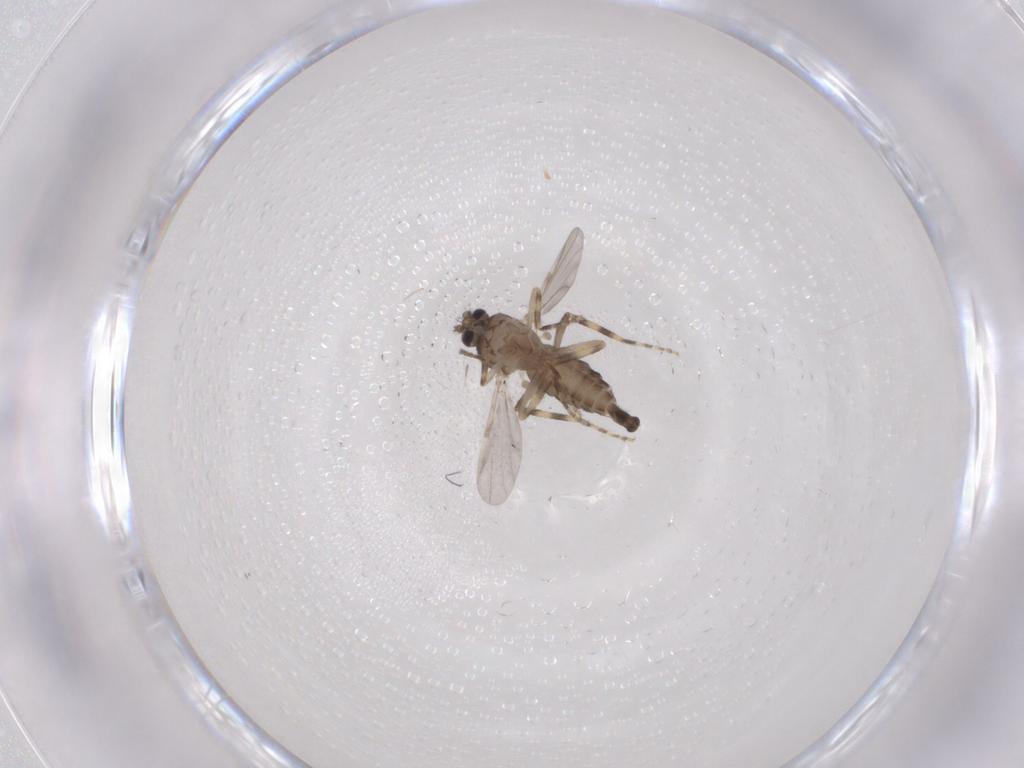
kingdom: Animalia
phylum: Arthropoda
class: Insecta
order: Diptera
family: Ceratopogonidae
